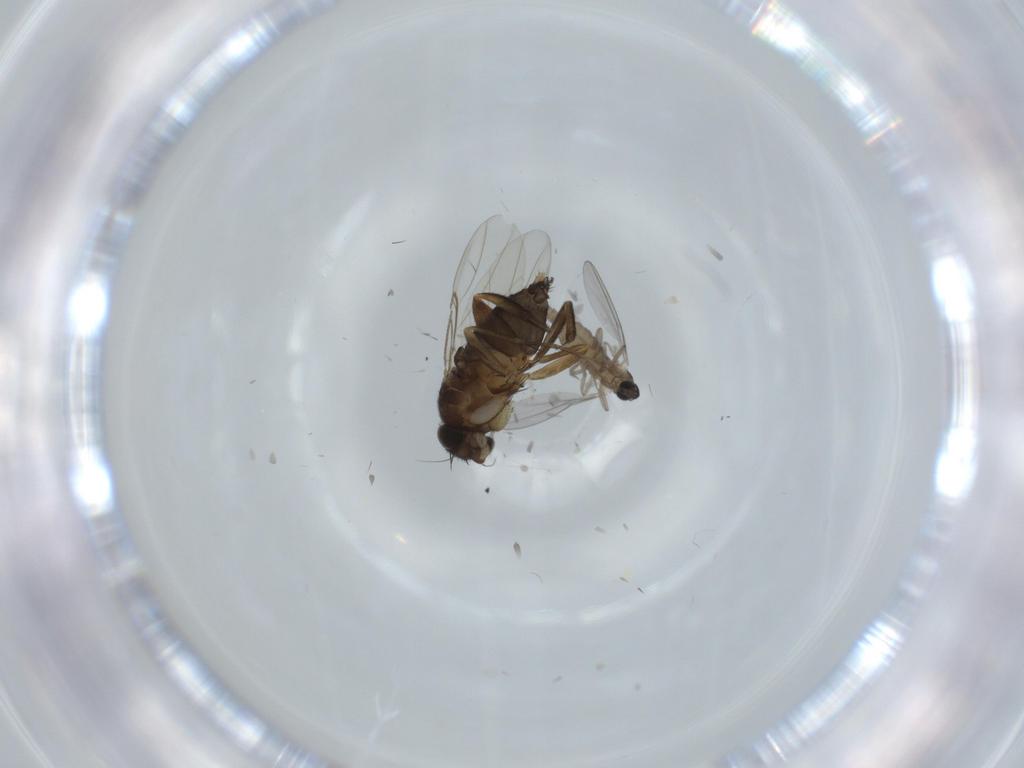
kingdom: Animalia
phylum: Arthropoda
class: Insecta
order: Diptera
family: Phoridae
